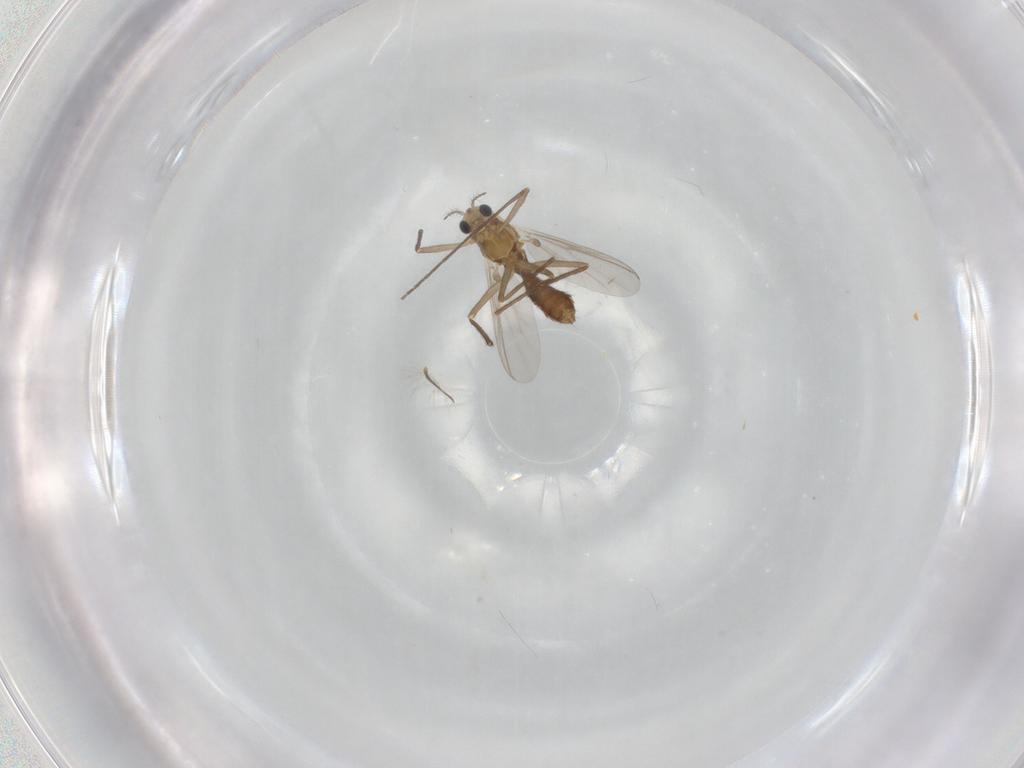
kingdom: Animalia
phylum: Arthropoda
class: Insecta
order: Diptera
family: Chironomidae
